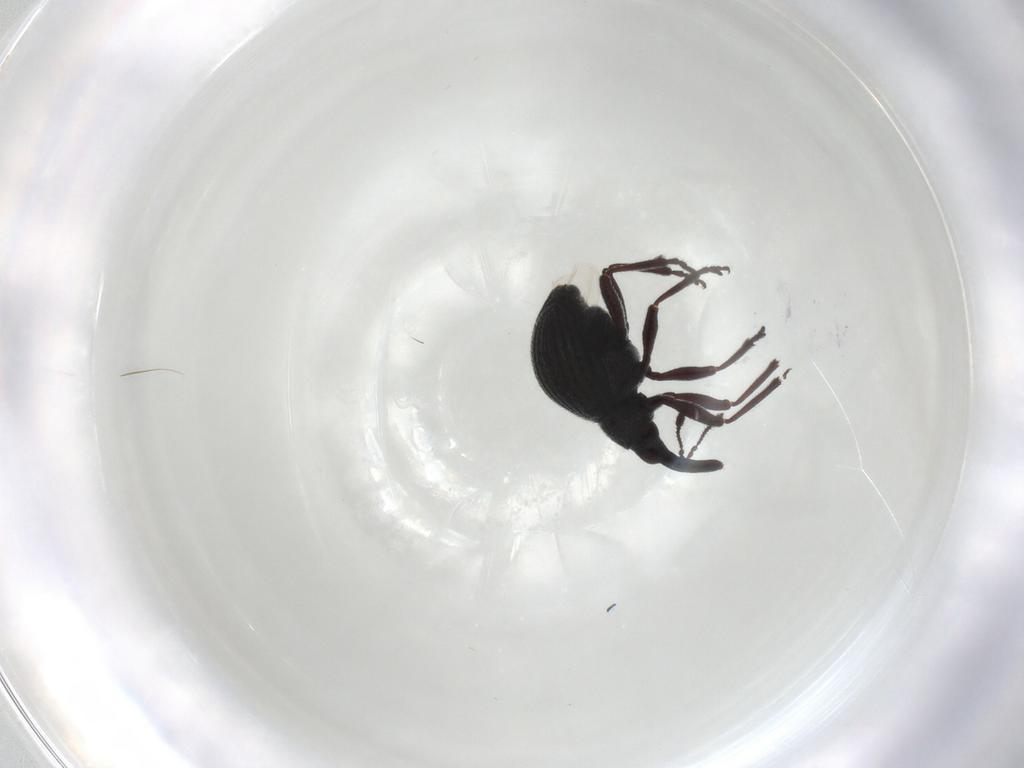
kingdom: Animalia
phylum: Arthropoda
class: Insecta
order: Coleoptera
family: Brentidae
